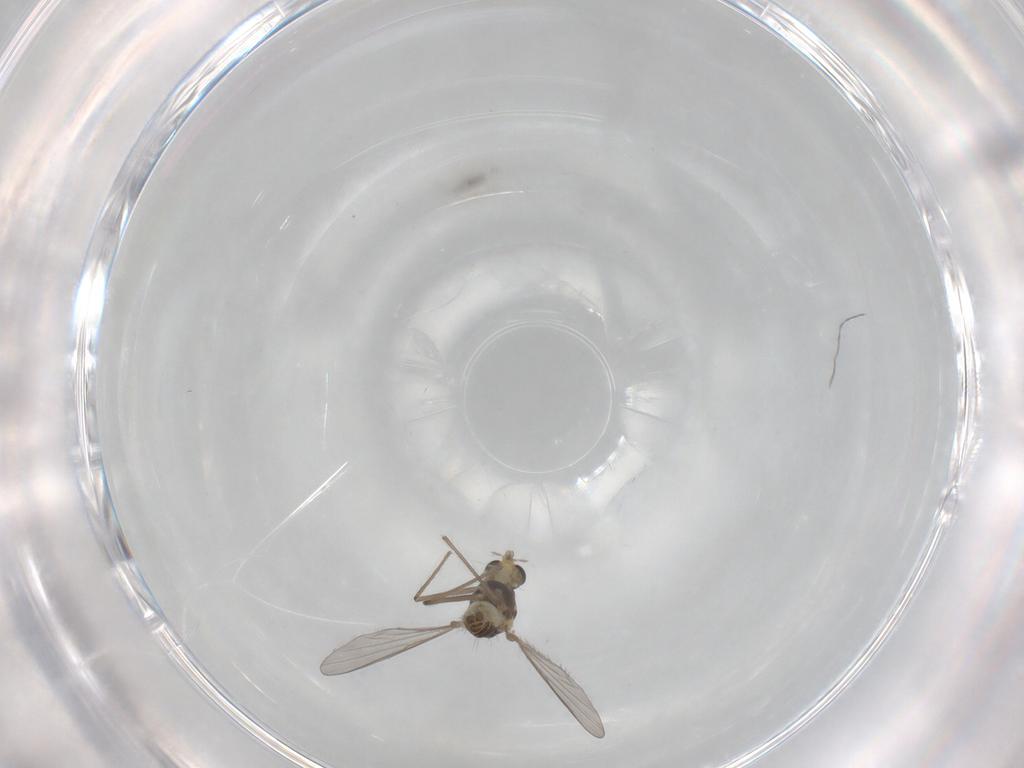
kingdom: Animalia
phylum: Arthropoda
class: Insecta
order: Diptera
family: Chironomidae
